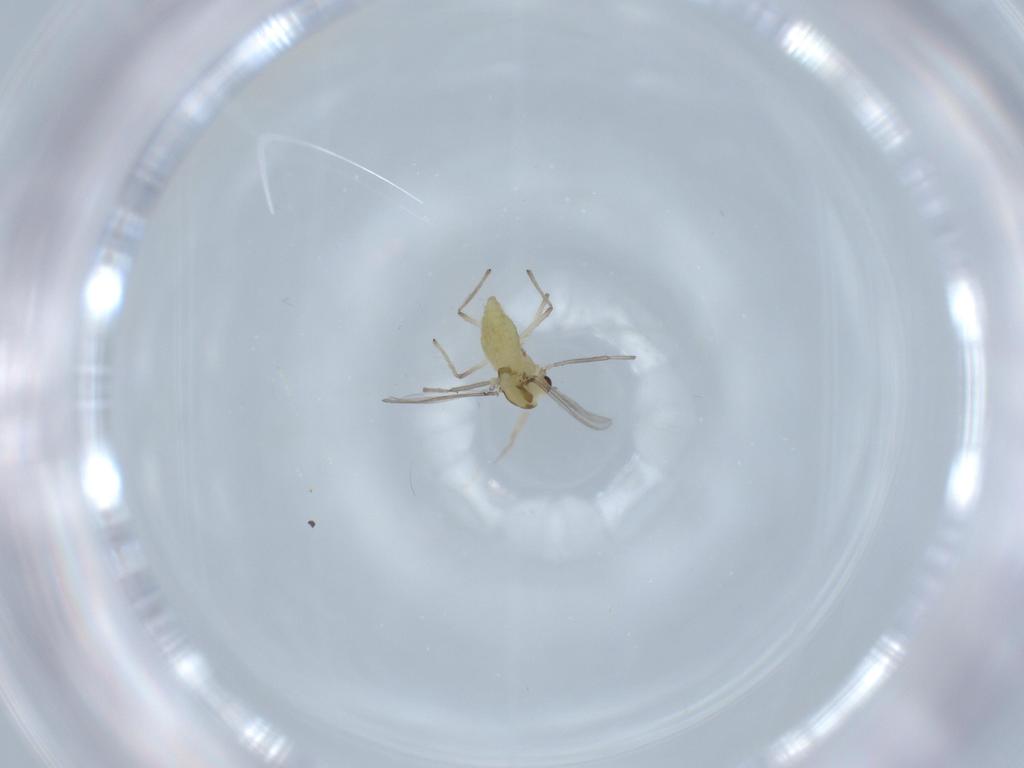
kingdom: Animalia
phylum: Arthropoda
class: Insecta
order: Diptera
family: Chironomidae
